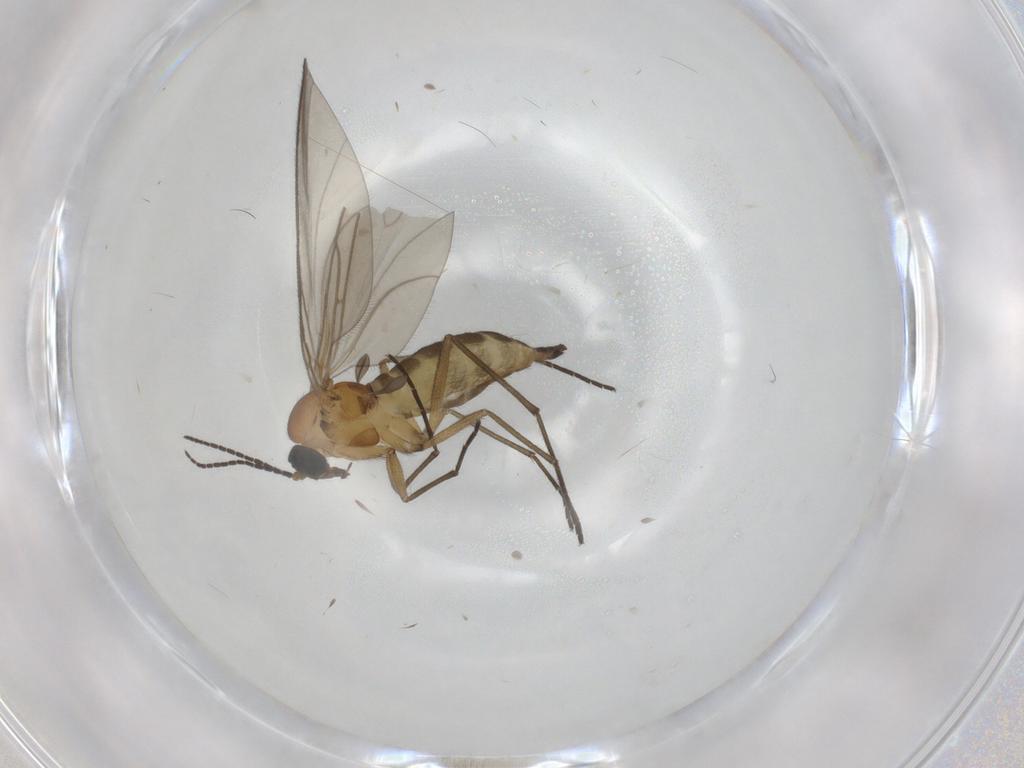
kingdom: Animalia
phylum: Arthropoda
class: Insecta
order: Diptera
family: Sciaridae
